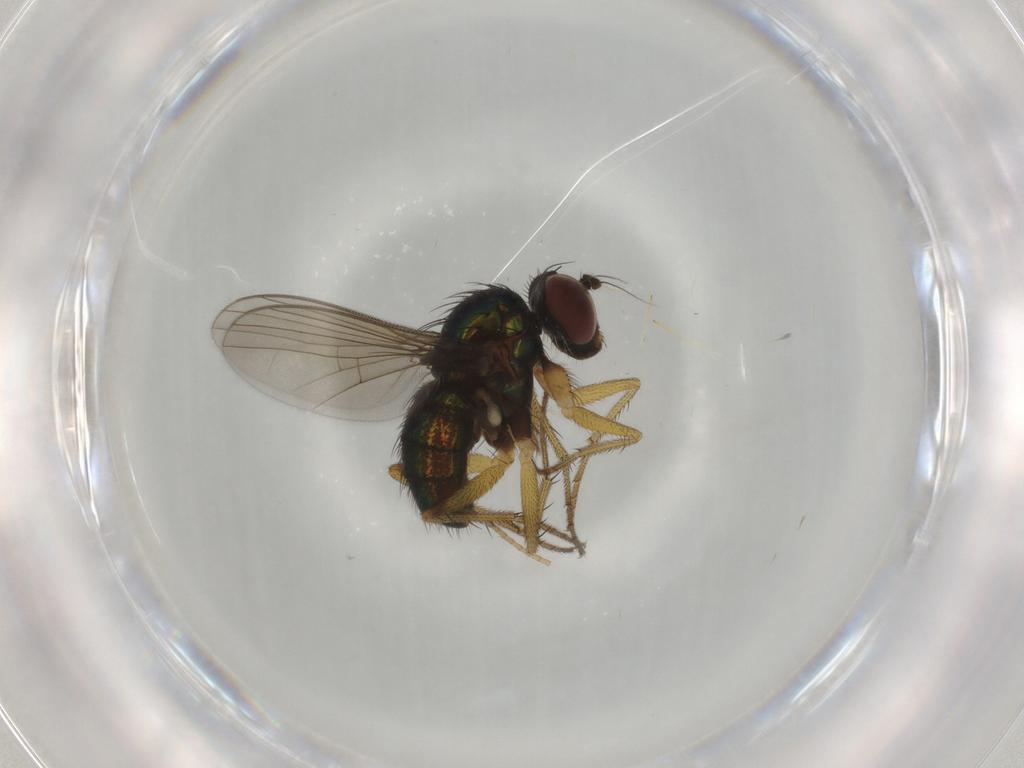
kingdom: Animalia
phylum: Arthropoda
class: Insecta
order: Diptera
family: Dolichopodidae
